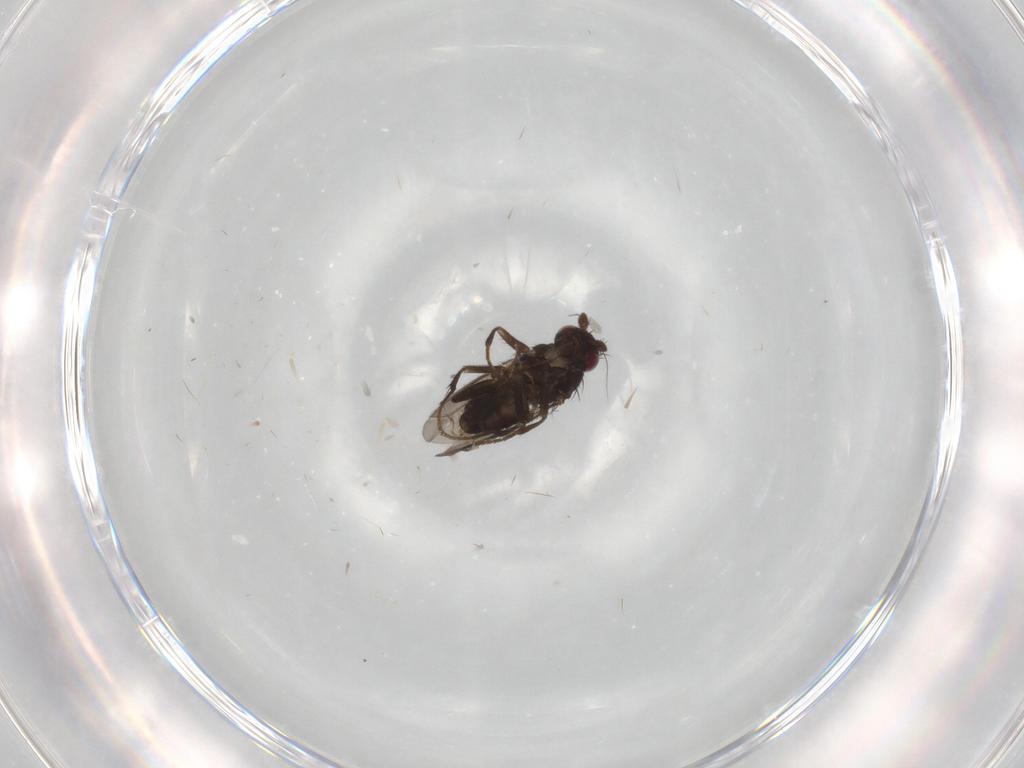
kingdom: Animalia
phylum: Arthropoda
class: Insecta
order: Diptera
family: Sphaeroceridae
